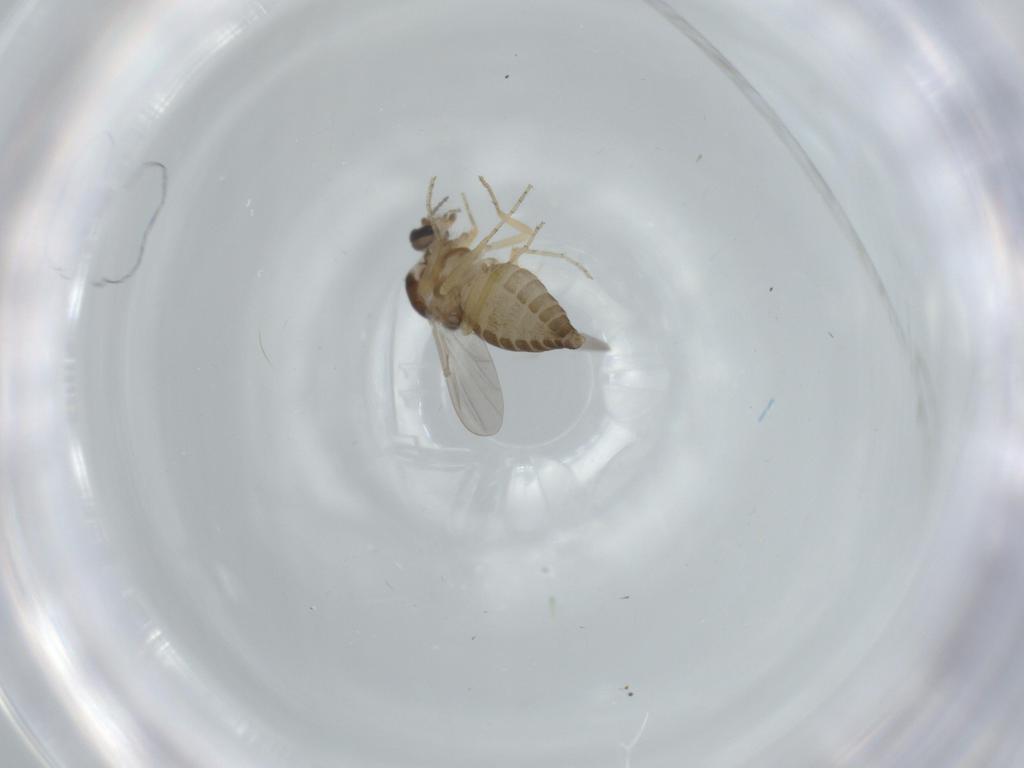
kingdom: Animalia
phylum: Arthropoda
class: Insecta
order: Diptera
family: Ceratopogonidae
